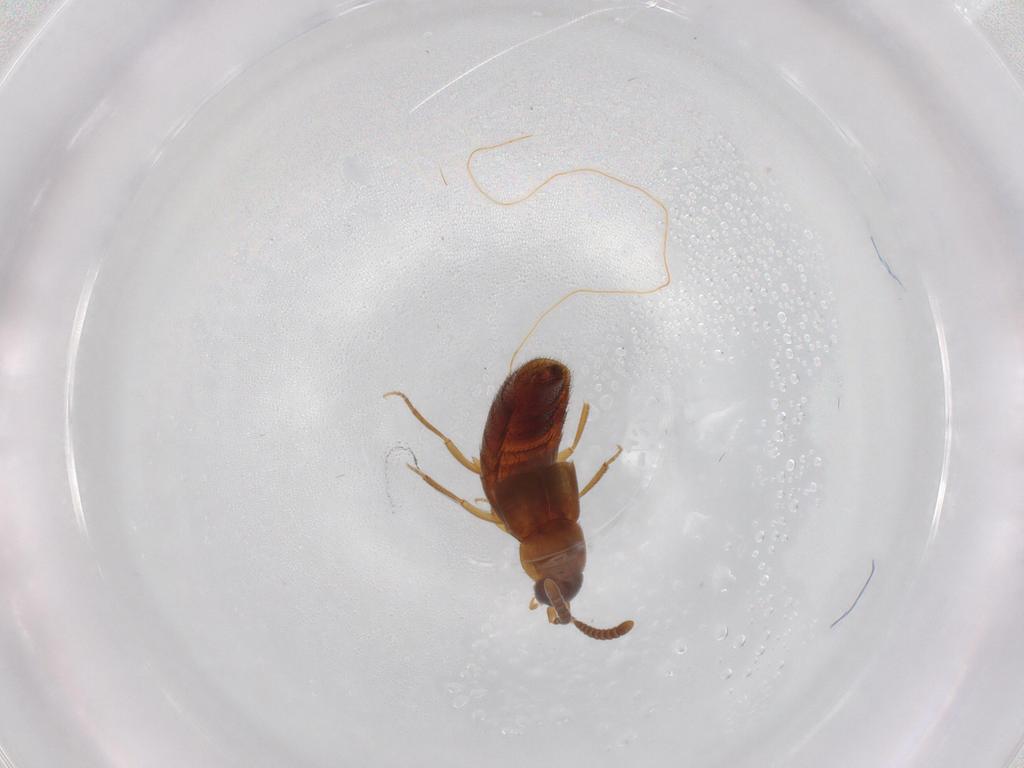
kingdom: Animalia
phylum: Arthropoda
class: Insecta
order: Coleoptera
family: Staphylinidae
